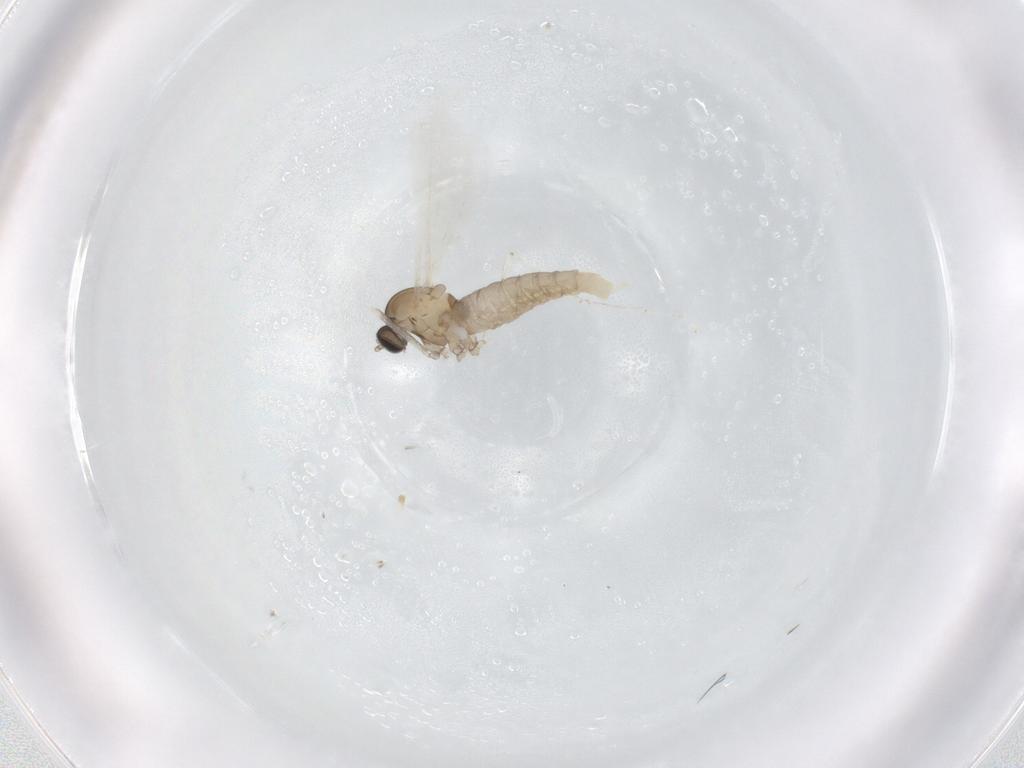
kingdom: Animalia
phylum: Arthropoda
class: Insecta
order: Diptera
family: Cecidomyiidae
